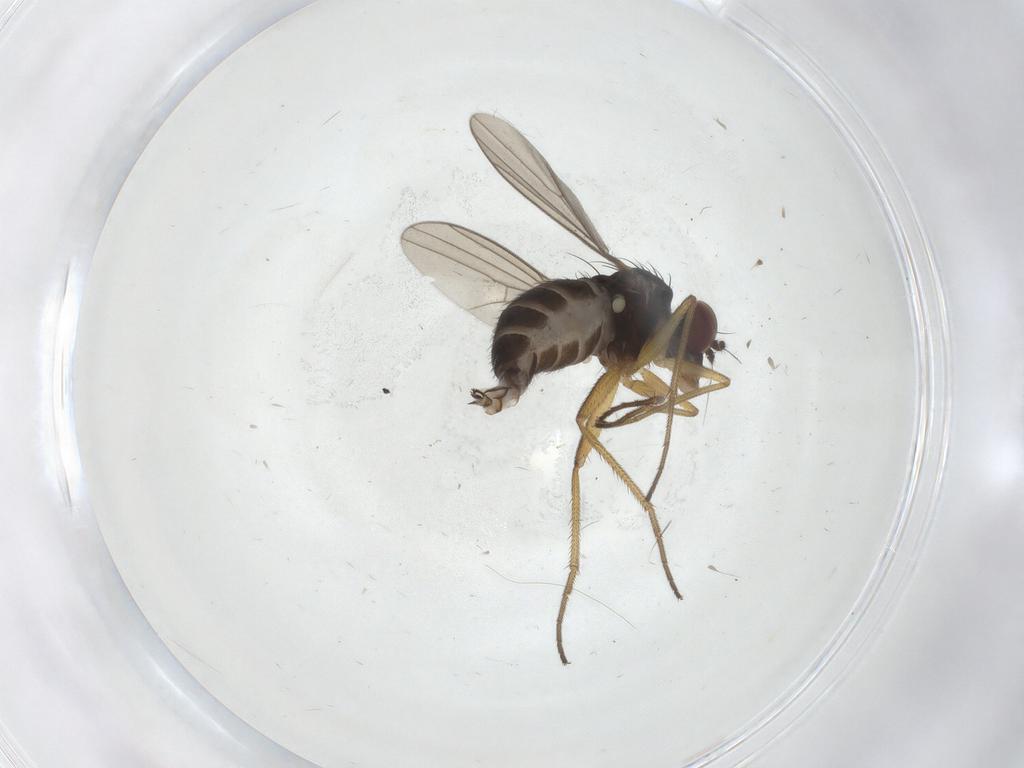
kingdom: Animalia
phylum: Arthropoda
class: Insecta
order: Diptera
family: Dolichopodidae
